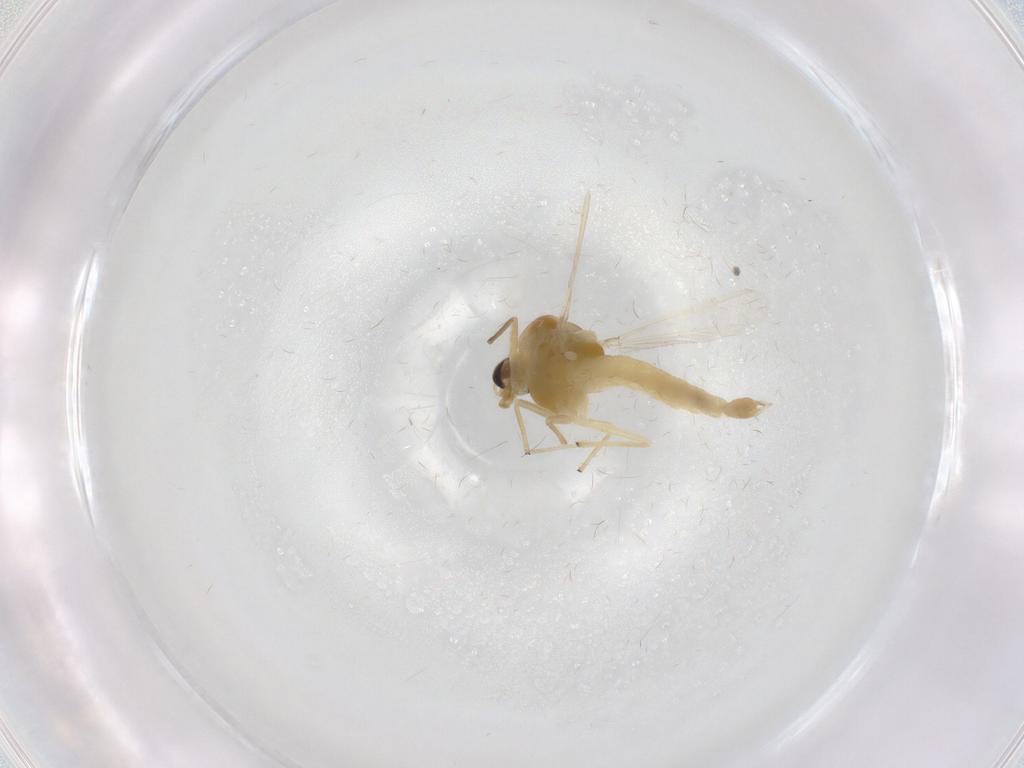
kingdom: Animalia
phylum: Arthropoda
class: Insecta
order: Diptera
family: Chironomidae
